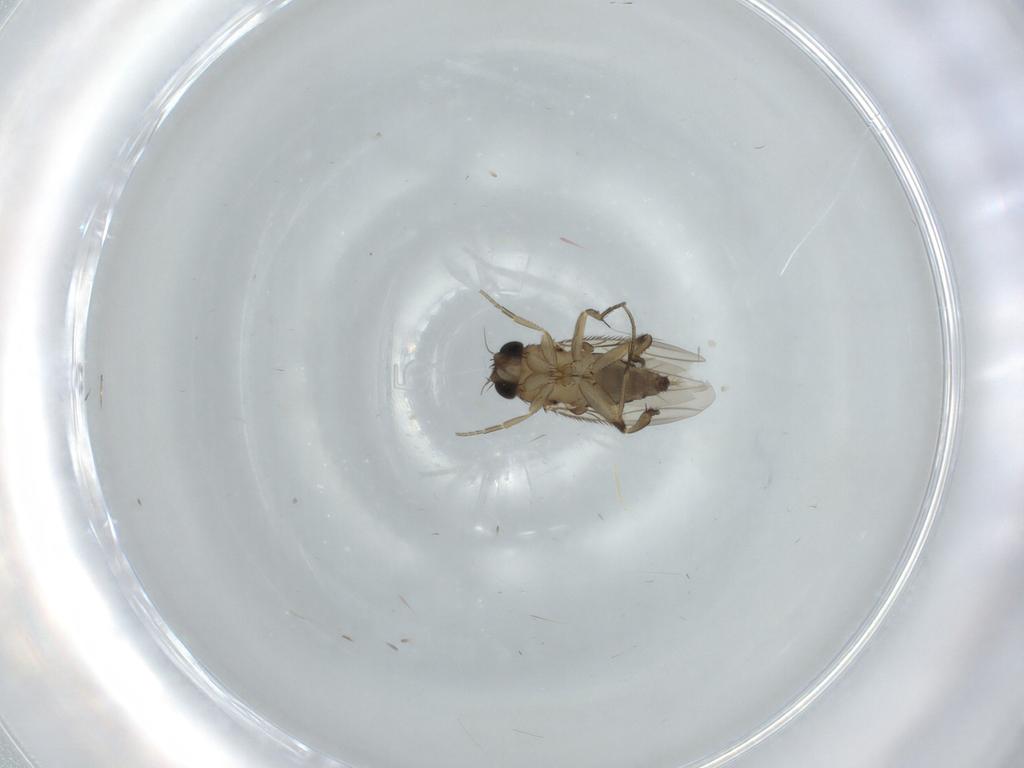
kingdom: Animalia
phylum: Arthropoda
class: Insecta
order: Diptera
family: Phoridae
